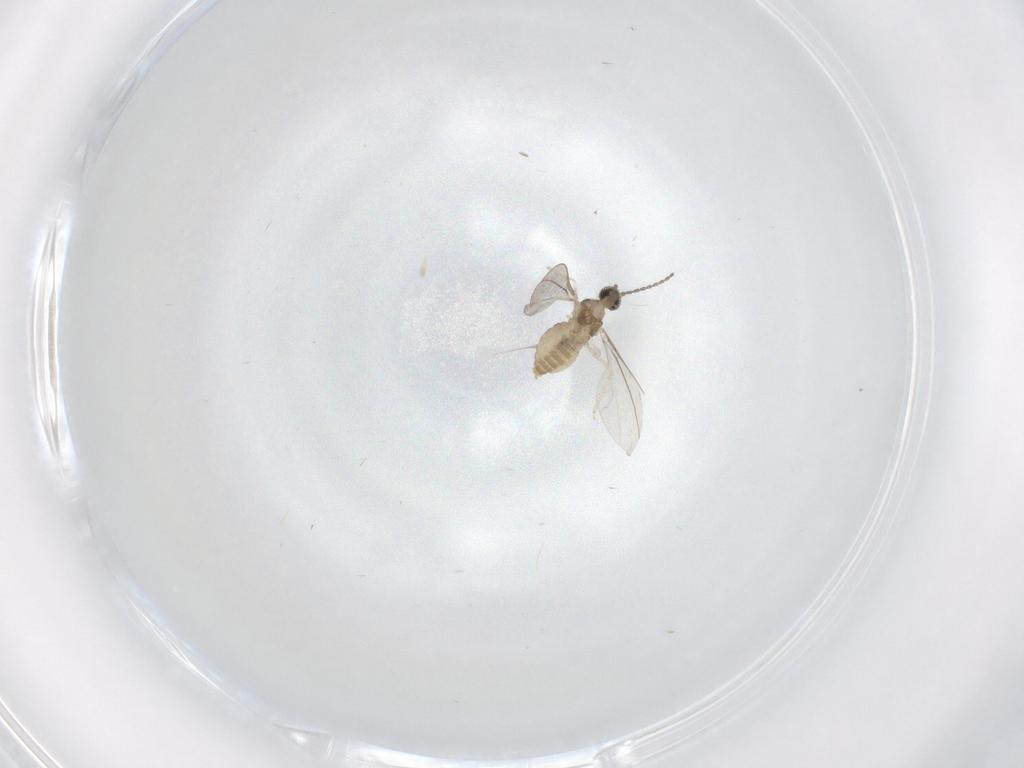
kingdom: Animalia
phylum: Arthropoda
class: Insecta
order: Diptera
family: Cecidomyiidae
